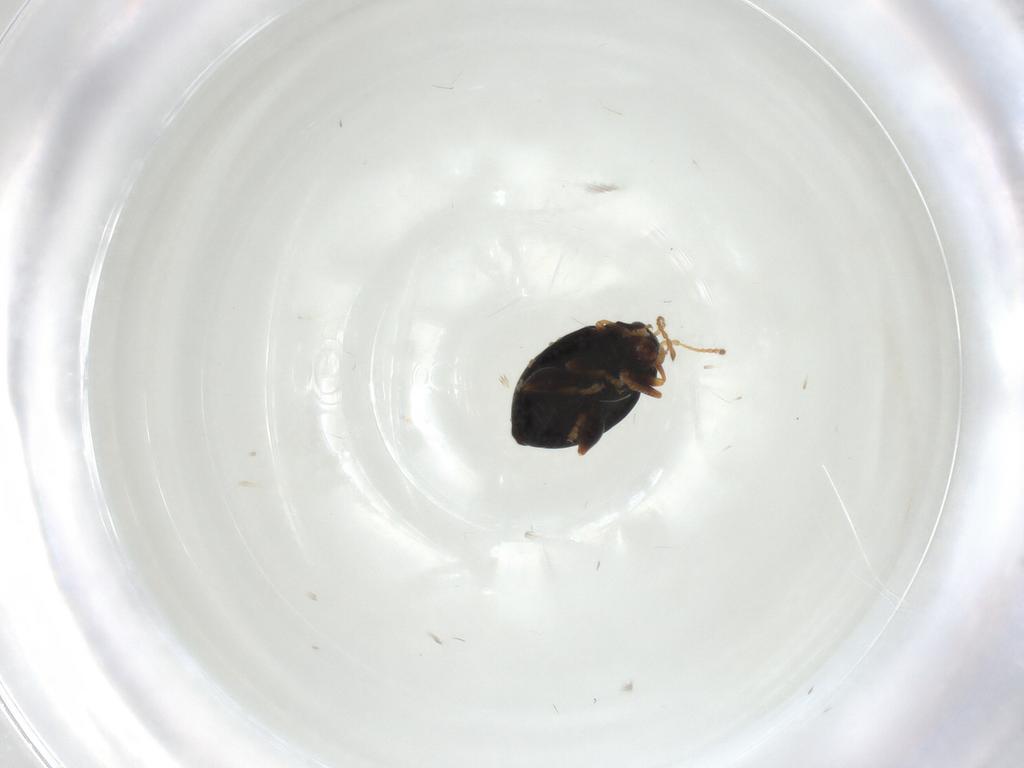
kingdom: Animalia
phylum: Arthropoda
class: Insecta
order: Coleoptera
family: Chrysomelidae
